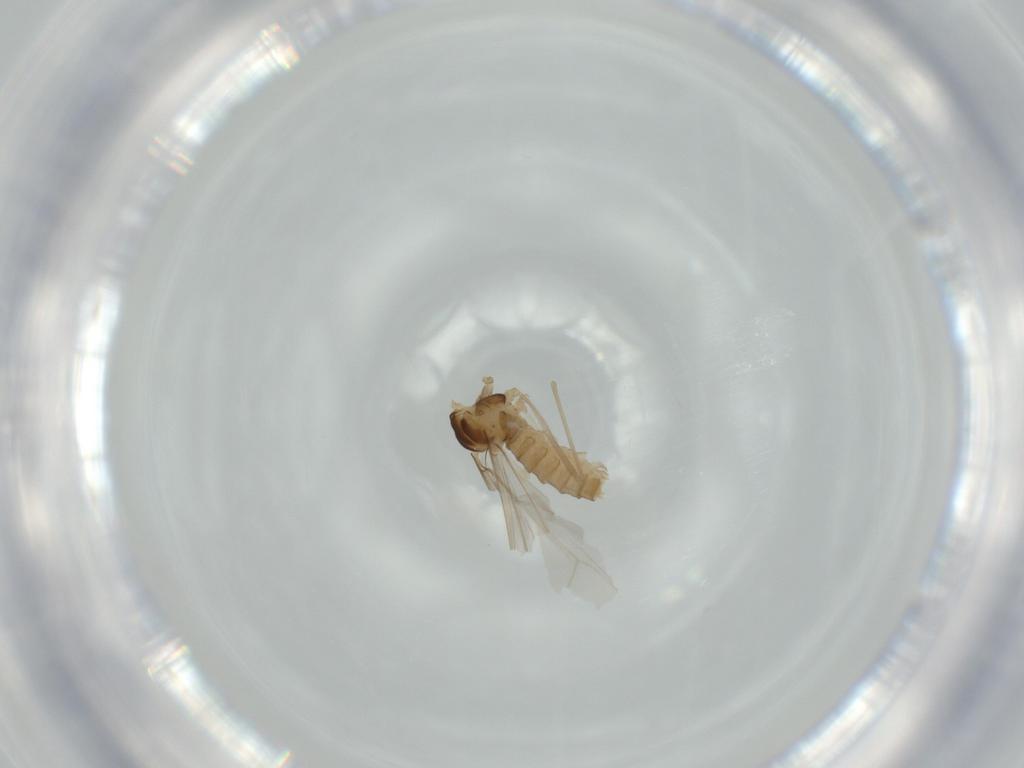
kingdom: Animalia
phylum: Arthropoda
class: Insecta
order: Diptera
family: Cecidomyiidae
